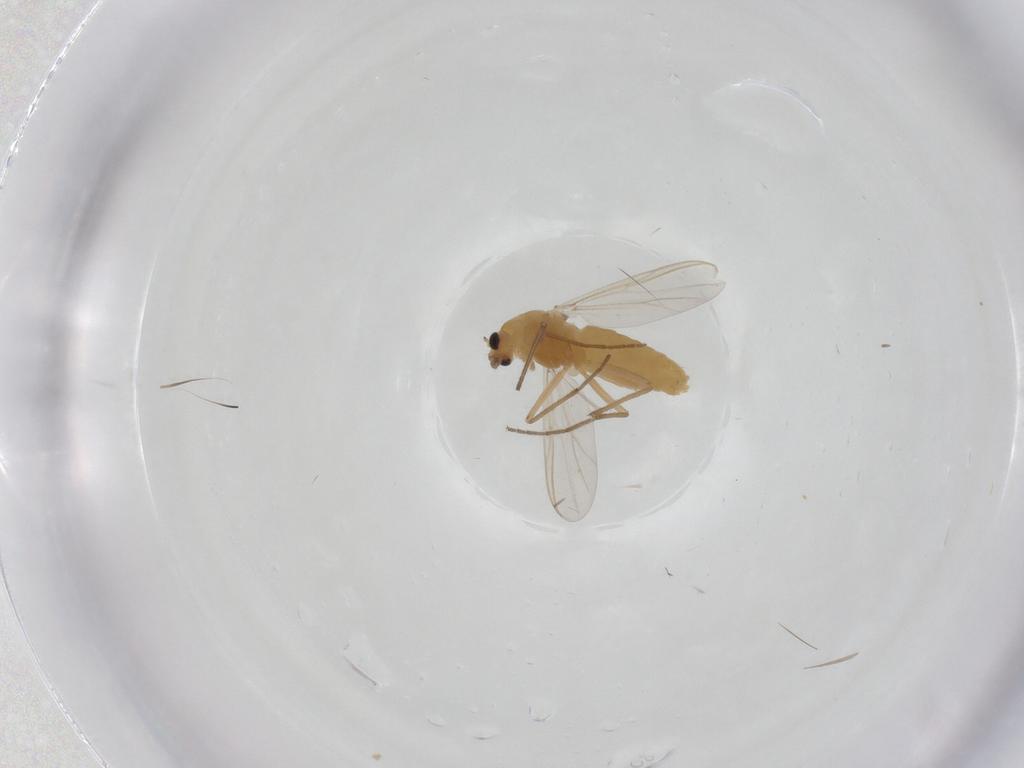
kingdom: Animalia
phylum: Arthropoda
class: Insecta
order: Diptera
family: Chironomidae
